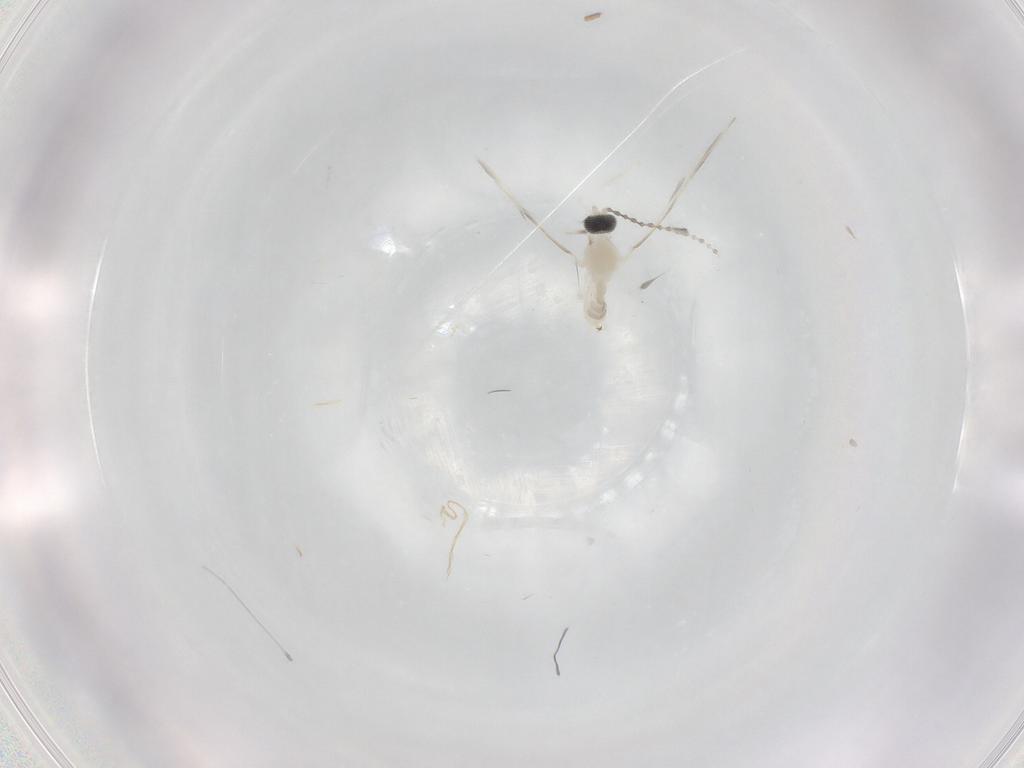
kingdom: Animalia
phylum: Arthropoda
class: Insecta
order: Diptera
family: Cecidomyiidae
